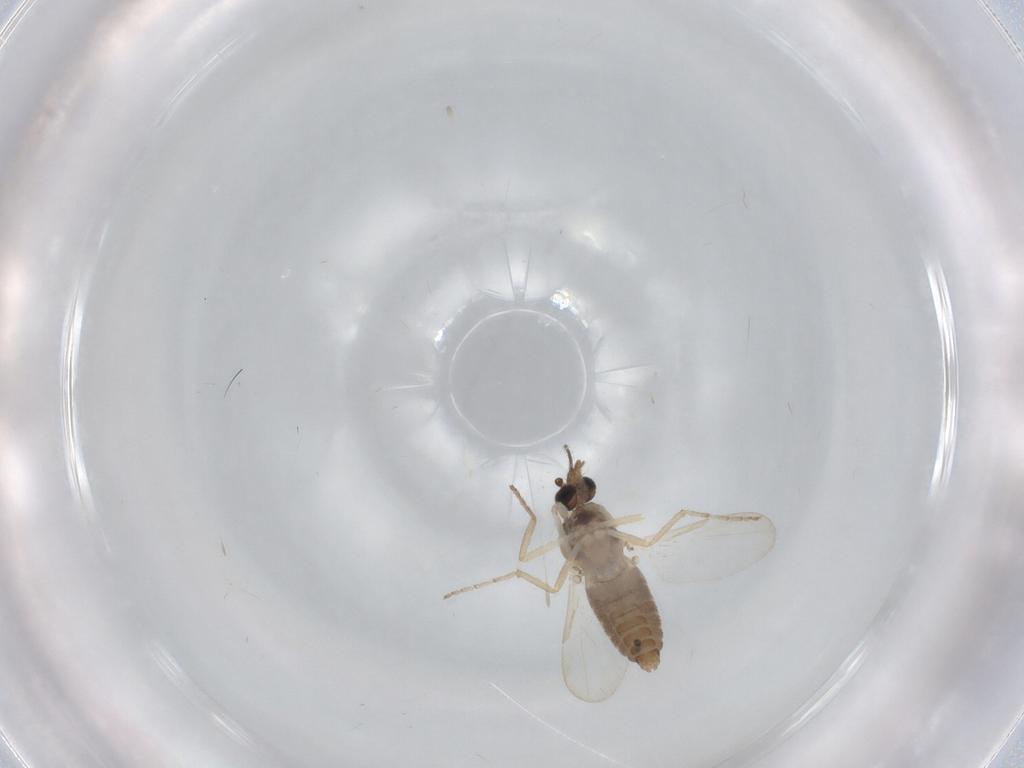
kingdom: Animalia
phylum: Arthropoda
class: Insecta
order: Diptera
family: Ceratopogonidae
